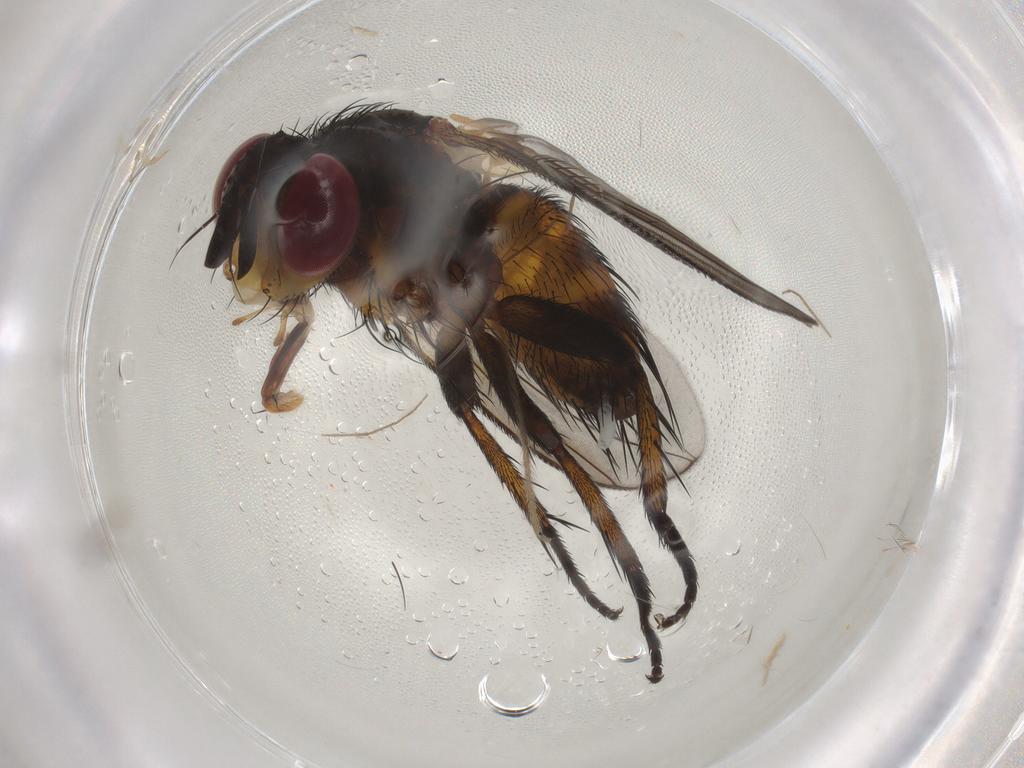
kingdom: Animalia
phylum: Arthropoda
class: Insecta
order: Diptera
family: Tachinidae
